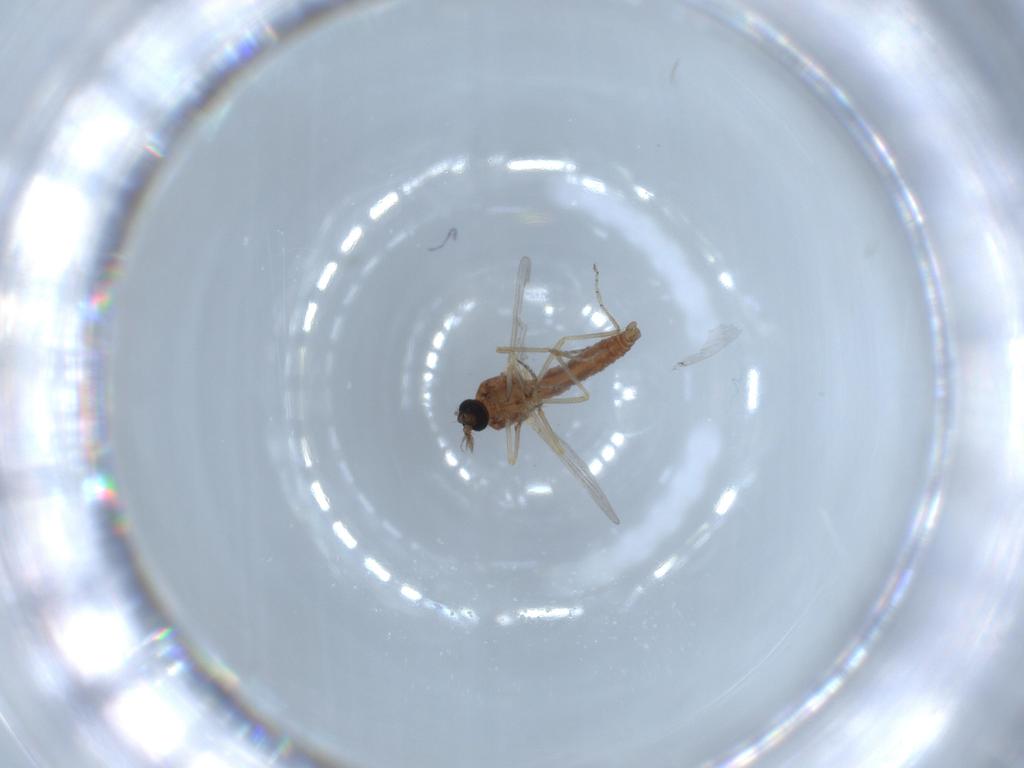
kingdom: Animalia
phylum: Arthropoda
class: Insecta
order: Diptera
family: Ceratopogonidae
